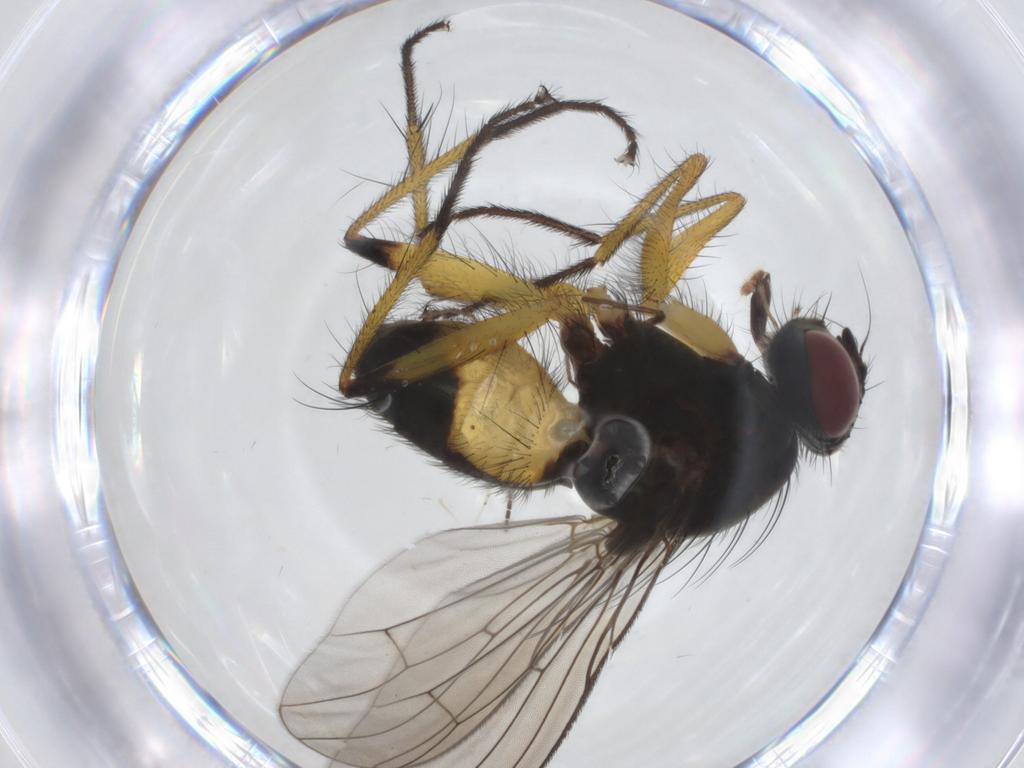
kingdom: Animalia
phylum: Arthropoda
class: Insecta
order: Diptera
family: Muscidae
